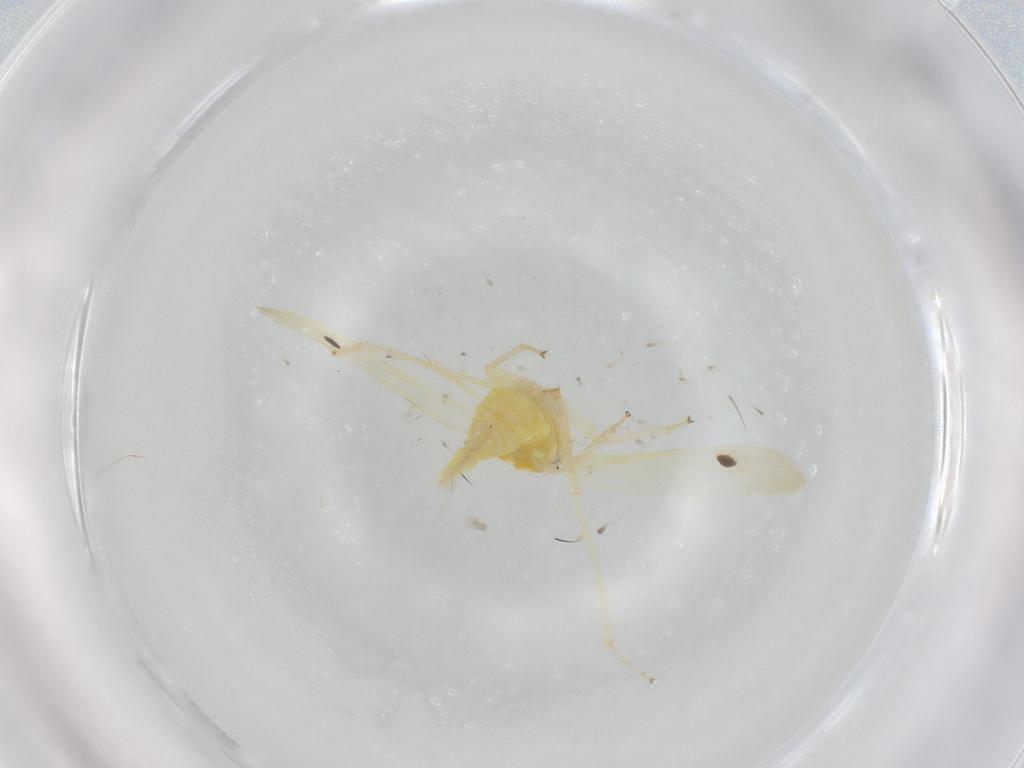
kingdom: Animalia
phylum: Arthropoda
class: Insecta
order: Hemiptera
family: Cicadellidae
